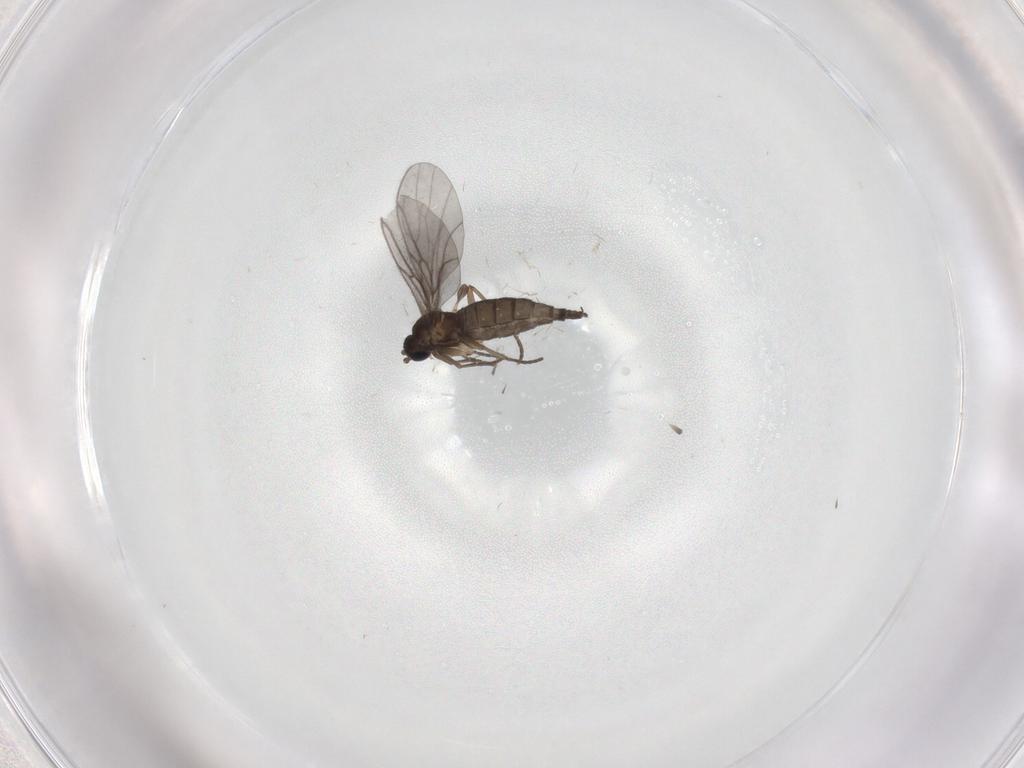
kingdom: Animalia
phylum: Arthropoda
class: Insecta
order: Diptera
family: Sciaridae
